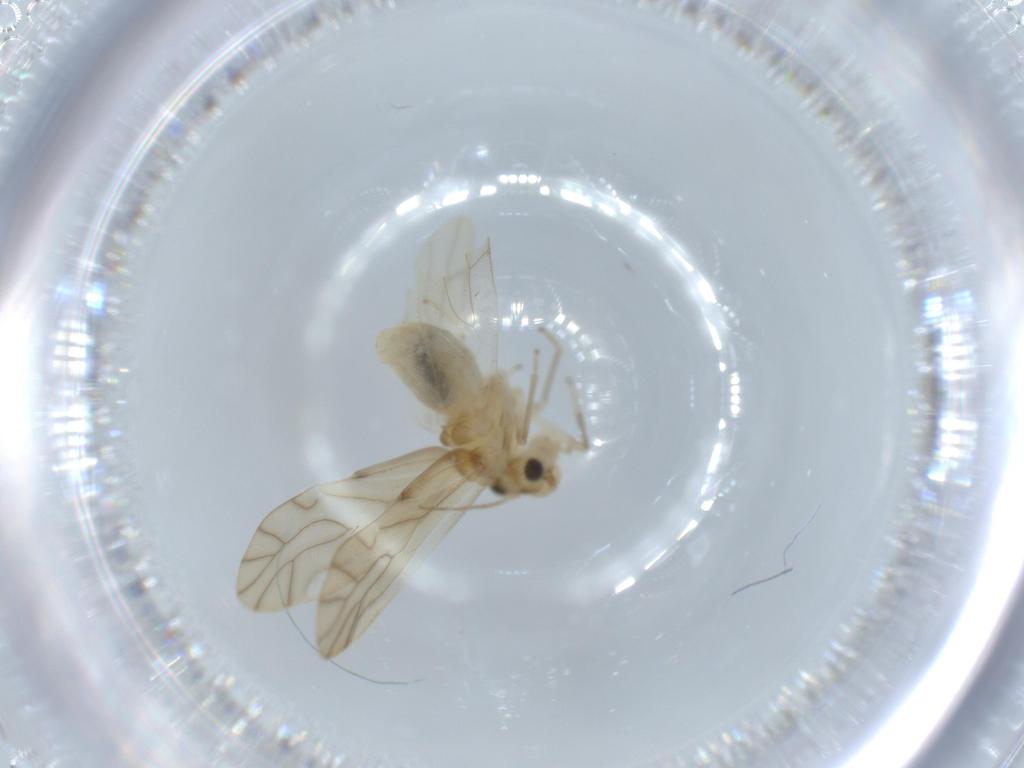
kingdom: Animalia
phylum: Arthropoda
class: Insecta
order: Psocodea
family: Caeciliusidae
